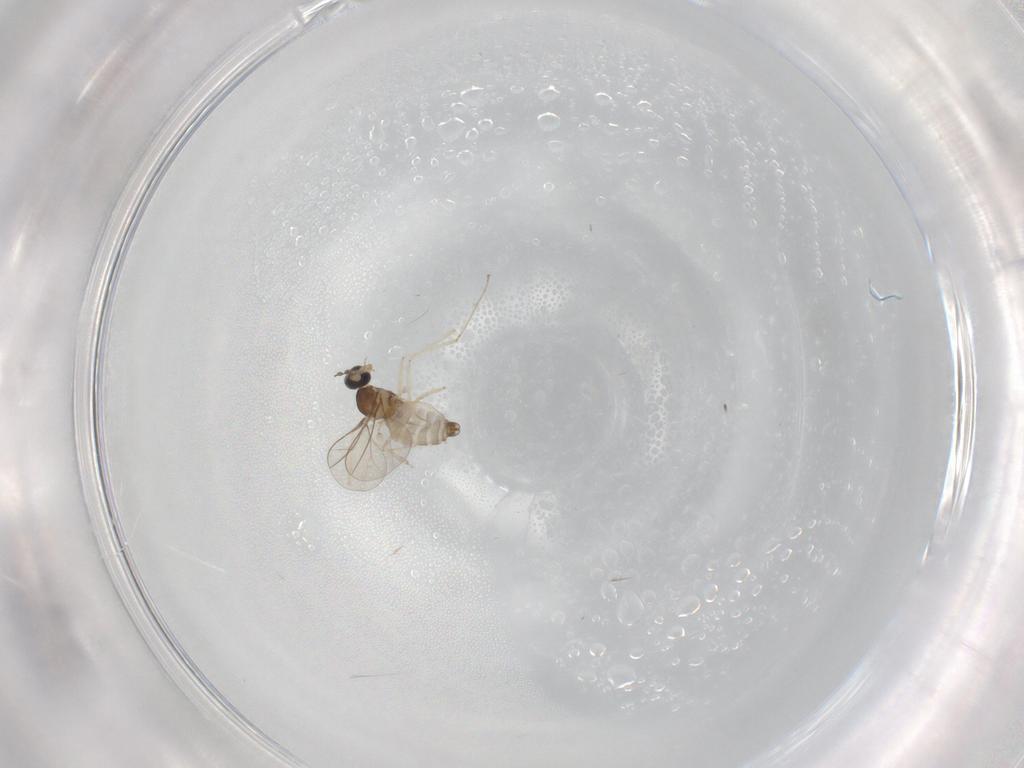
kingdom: Animalia
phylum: Arthropoda
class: Insecta
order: Diptera
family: Cecidomyiidae
